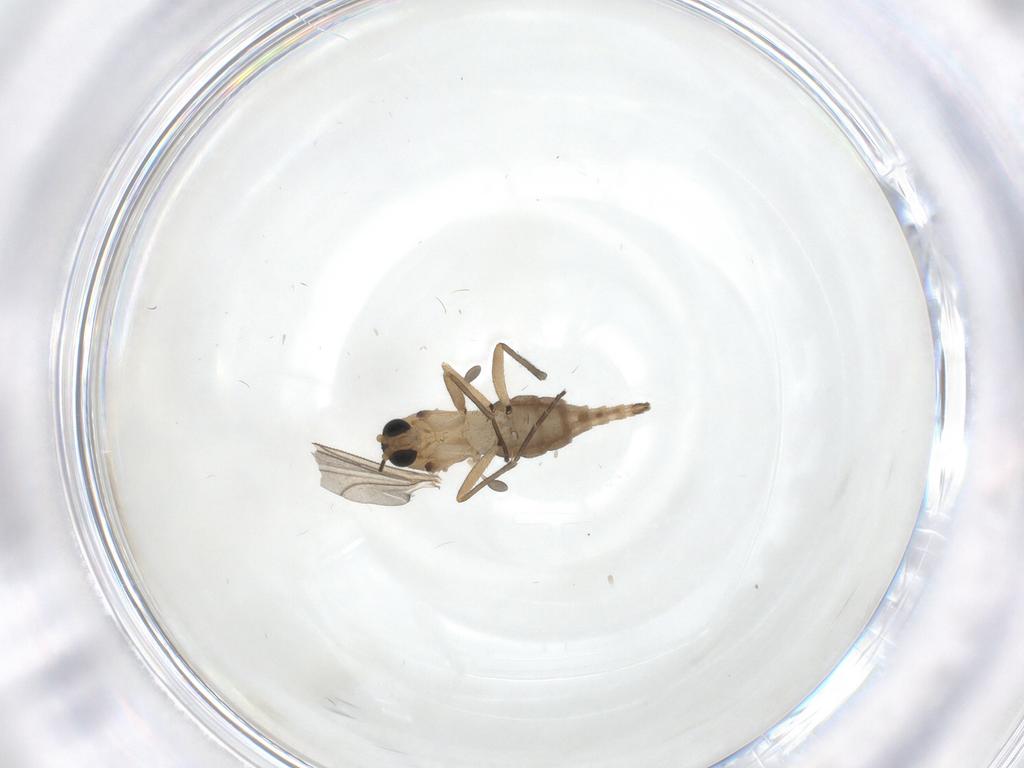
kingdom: Animalia
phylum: Arthropoda
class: Insecta
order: Diptera
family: Sciaridae
